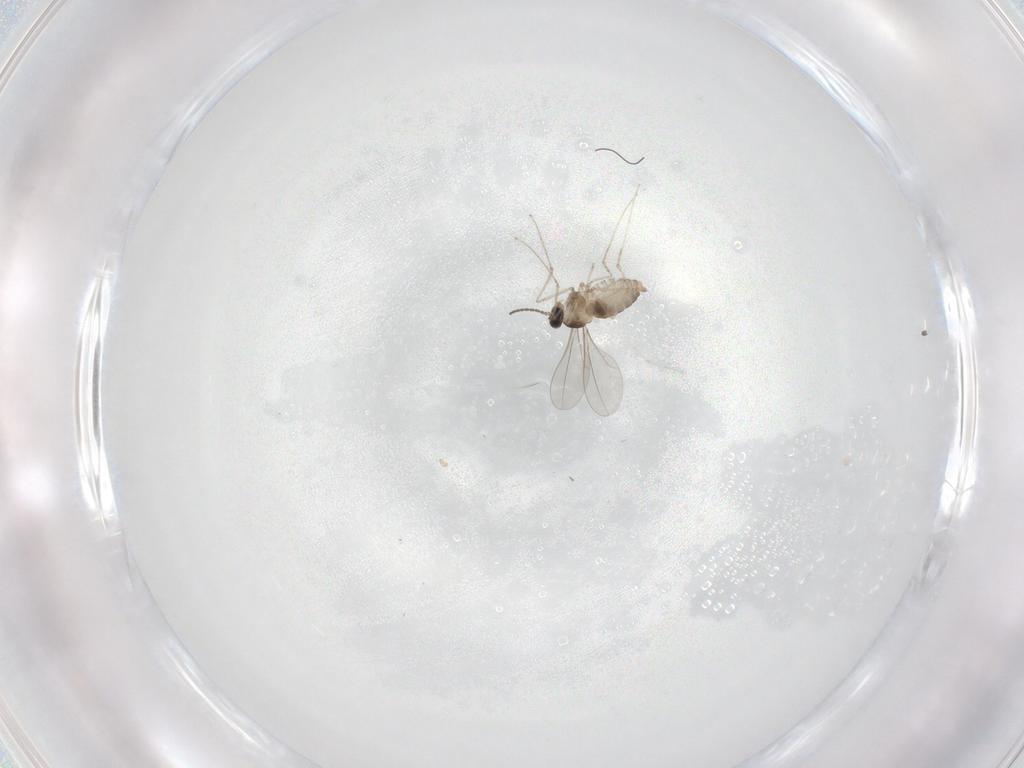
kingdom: Animalia
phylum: Arthropoda
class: Insecta
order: Diptera
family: Cecidomyiidae
